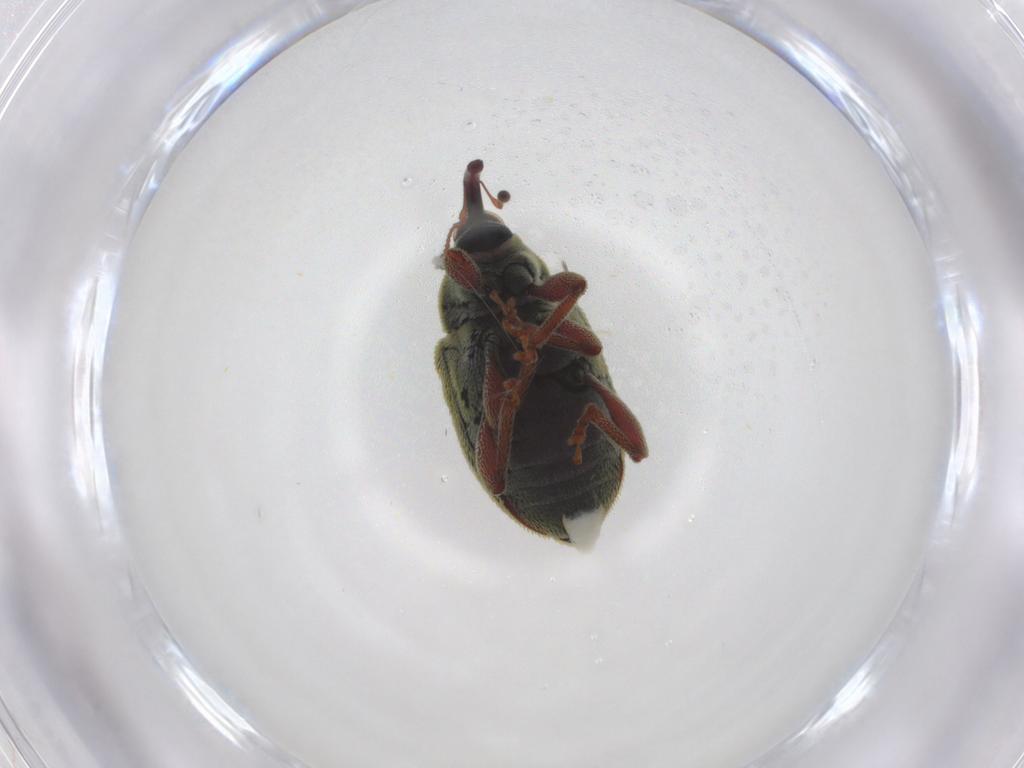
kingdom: Animalia
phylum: Arthropoda
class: Insecta
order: Coleoptera
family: Curculionidae
